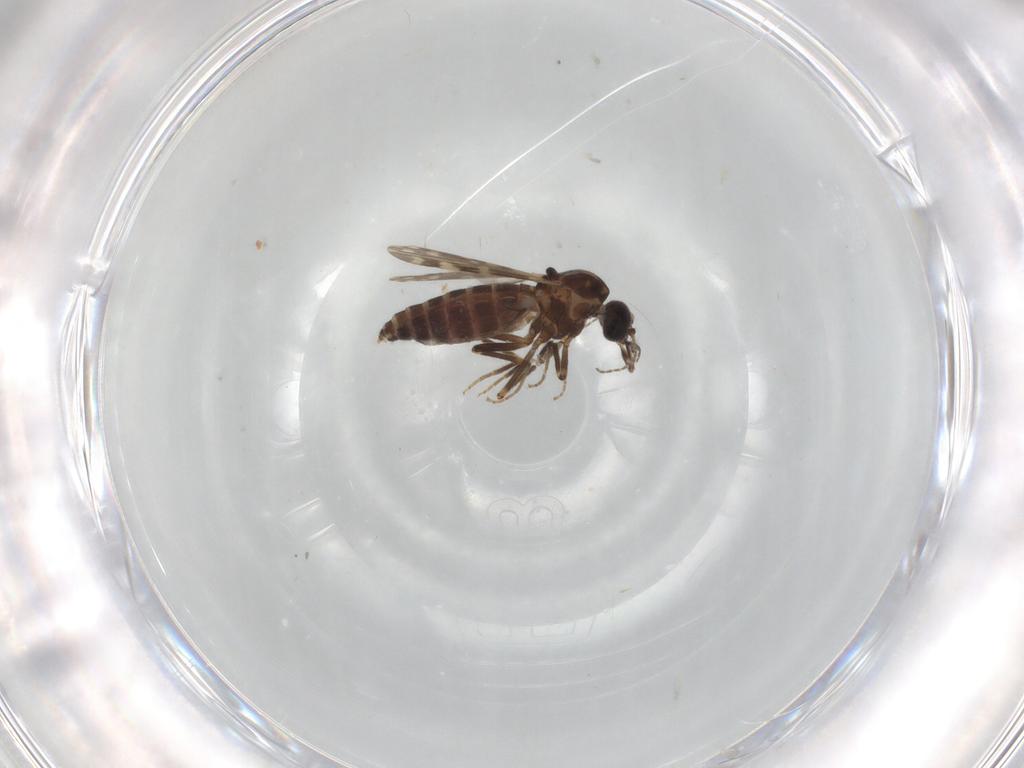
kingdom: Animalia
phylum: Arthropoda
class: Insecta
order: Diptera
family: Ceratopogonidae
